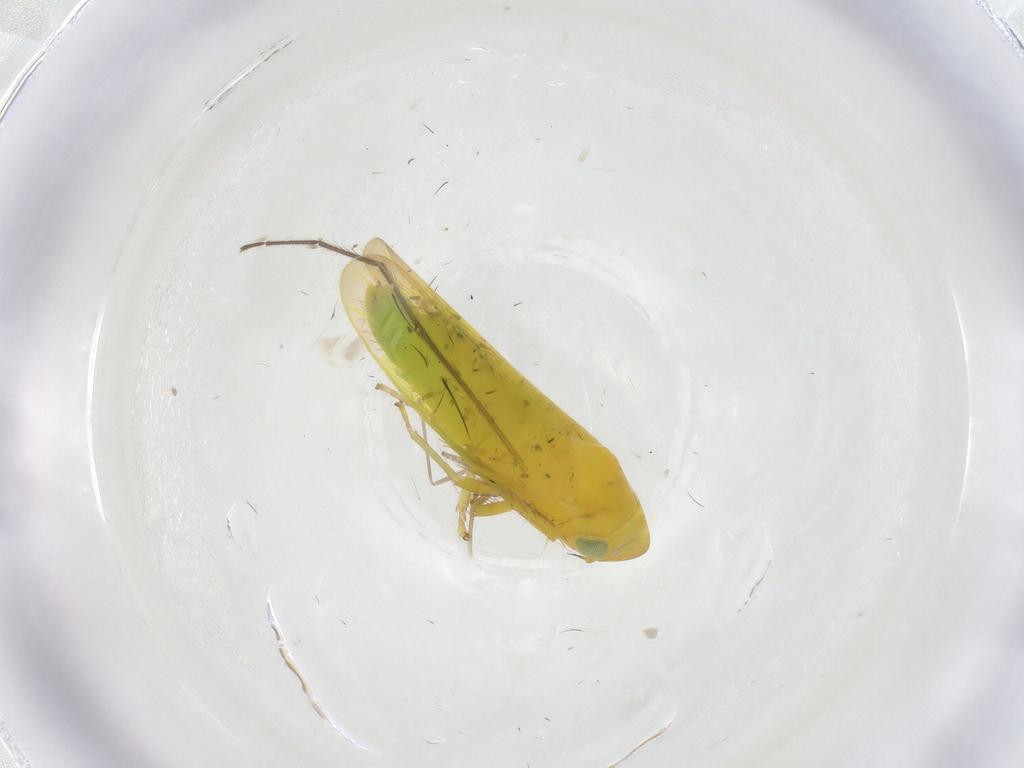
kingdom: Animalia
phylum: Arthropoda
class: Insecta
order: Hemiptera
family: Cicadellidae
